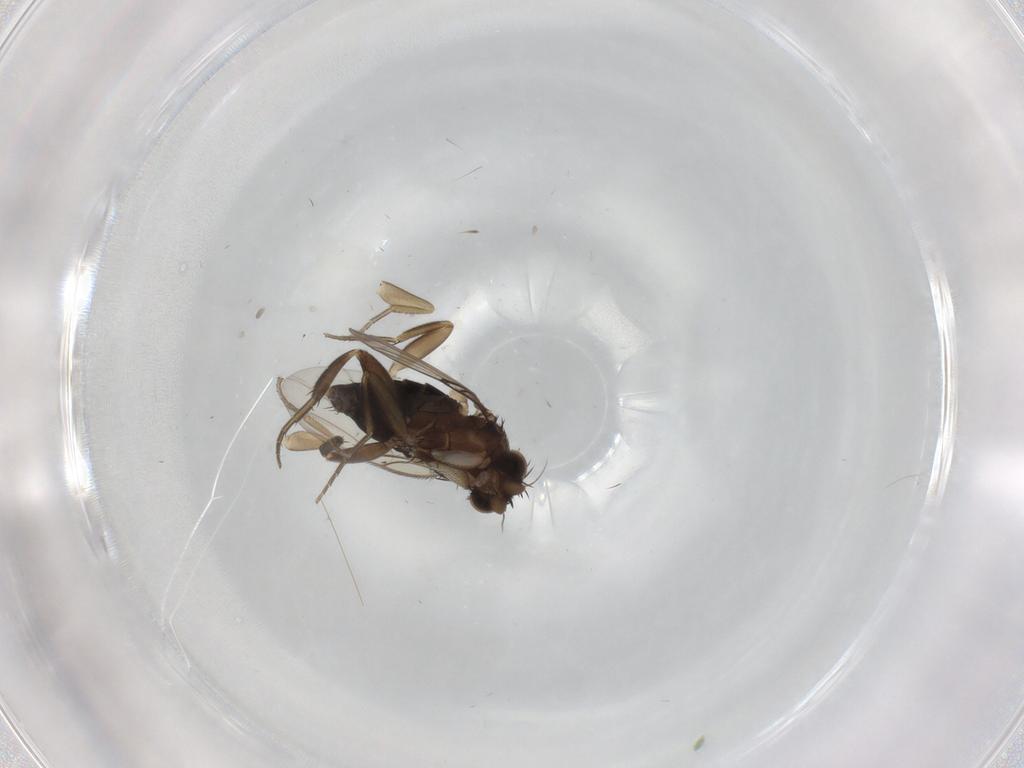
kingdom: Animalia
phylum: Arthropoda
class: Insecta
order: Diptera
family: Phoridae
